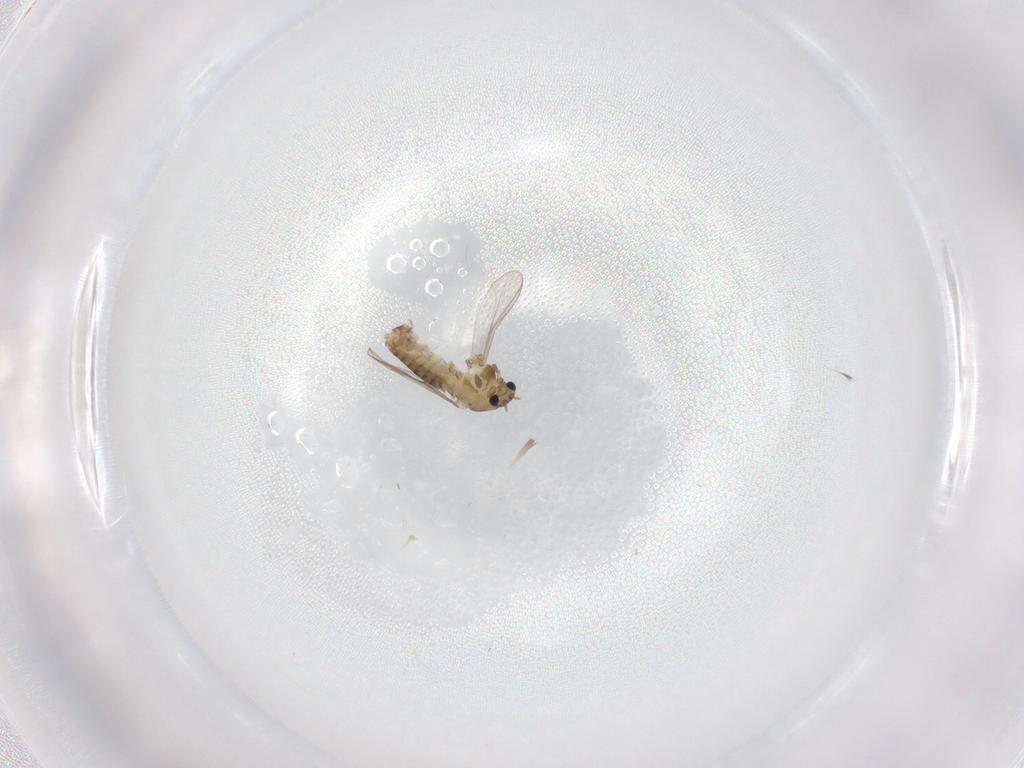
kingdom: Animalia
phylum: Arthropoda
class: Insecta
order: Diptera
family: Chironomidae
